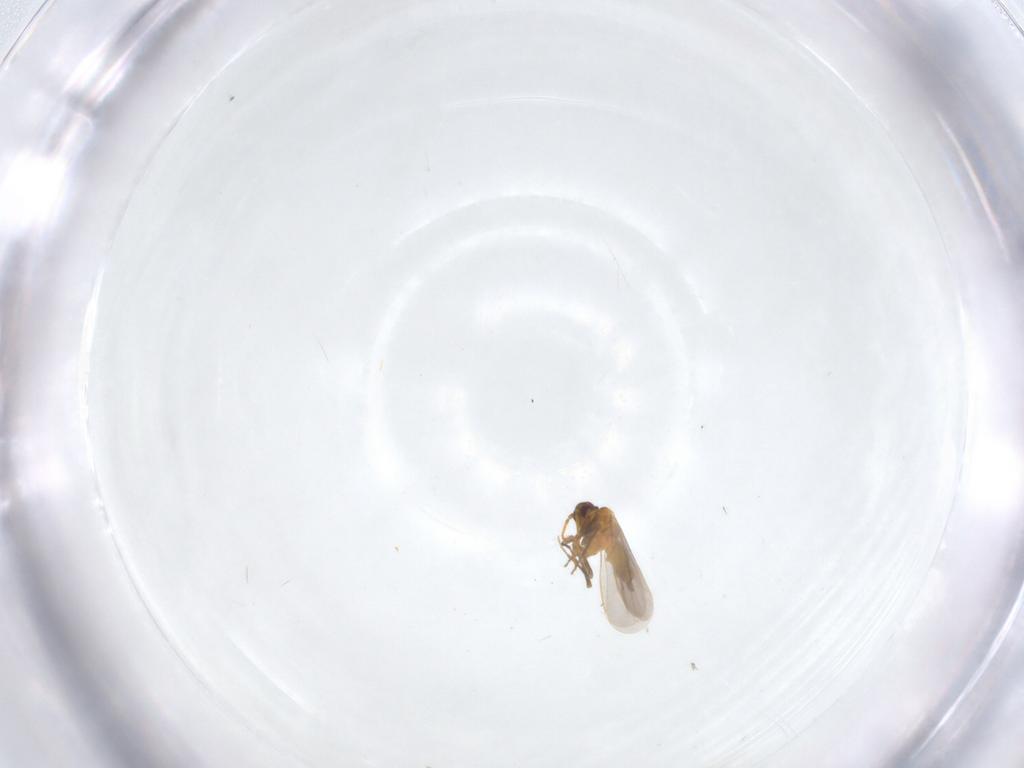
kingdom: Animalia
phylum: Arthropoda
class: Insecta
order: Hemiptera
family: Aleyrodidae
